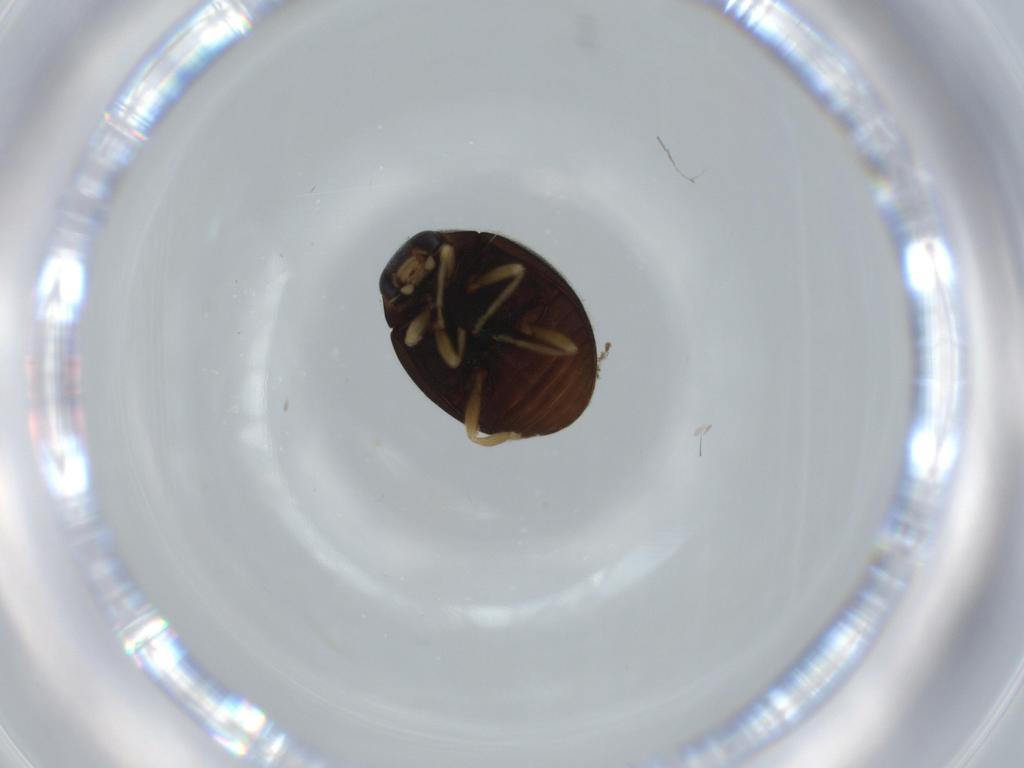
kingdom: Animalia
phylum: Arthropoda
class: Insecta
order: Coleoptera
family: Coccinellidae
